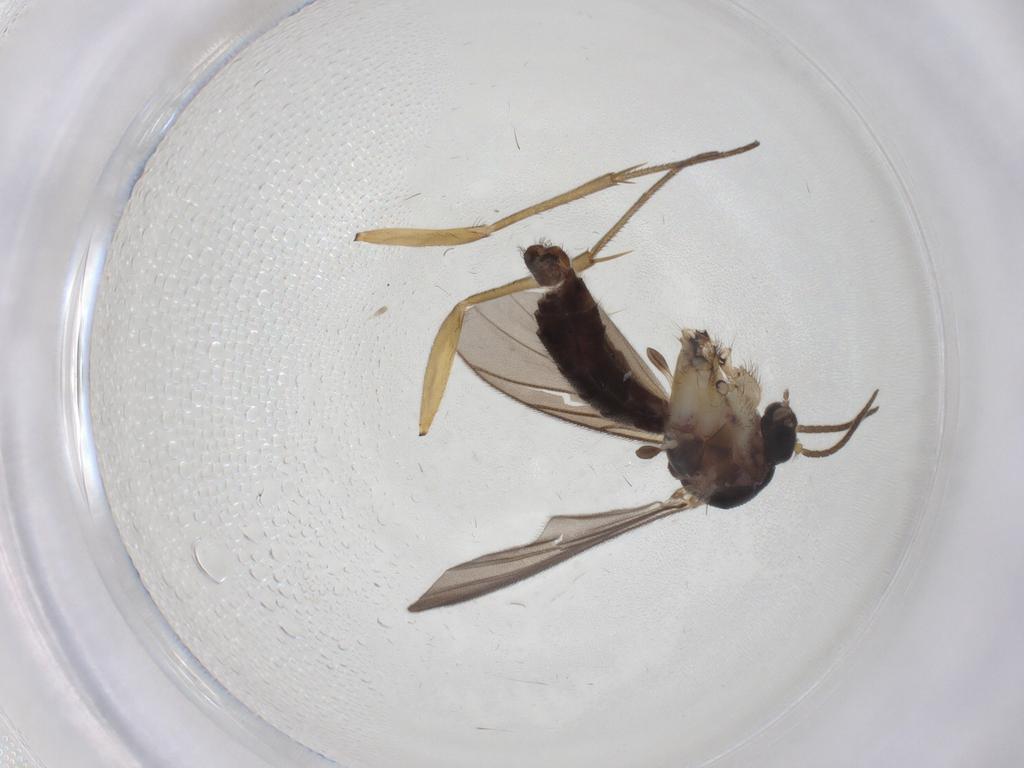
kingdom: Animalia
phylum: Arthropoda
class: Insecta
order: Diptera
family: Mycetophilidae
